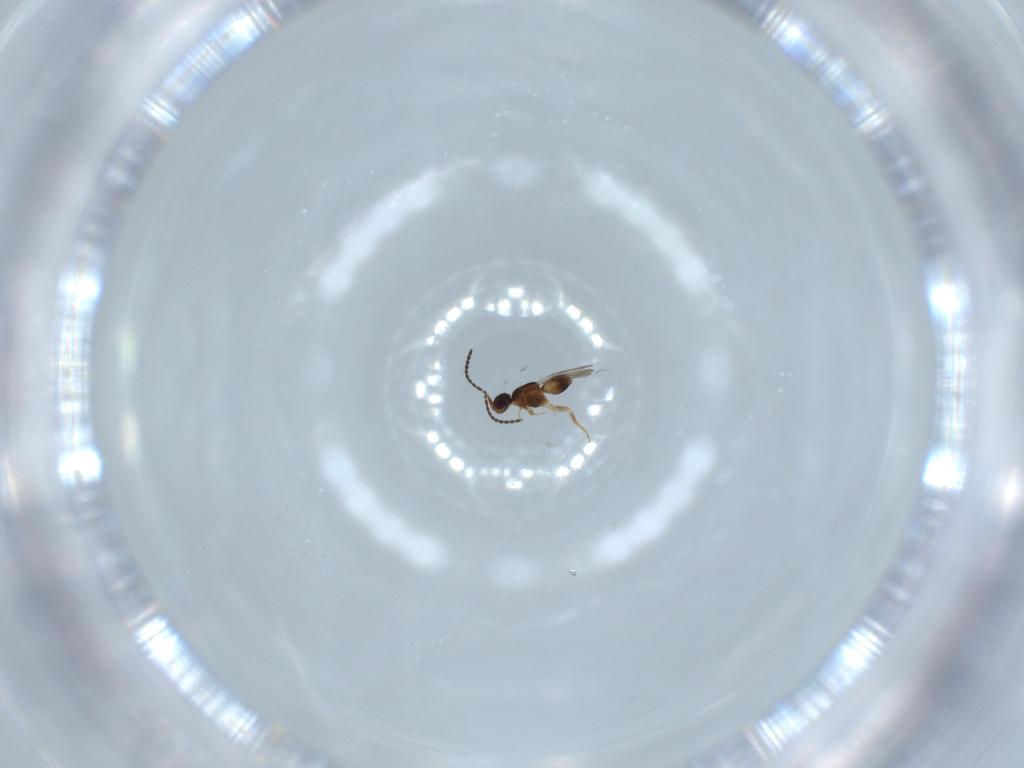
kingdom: Animalia
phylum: Arthropoda
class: Insecta
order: Hymenoptera
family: Ceraphronidae
